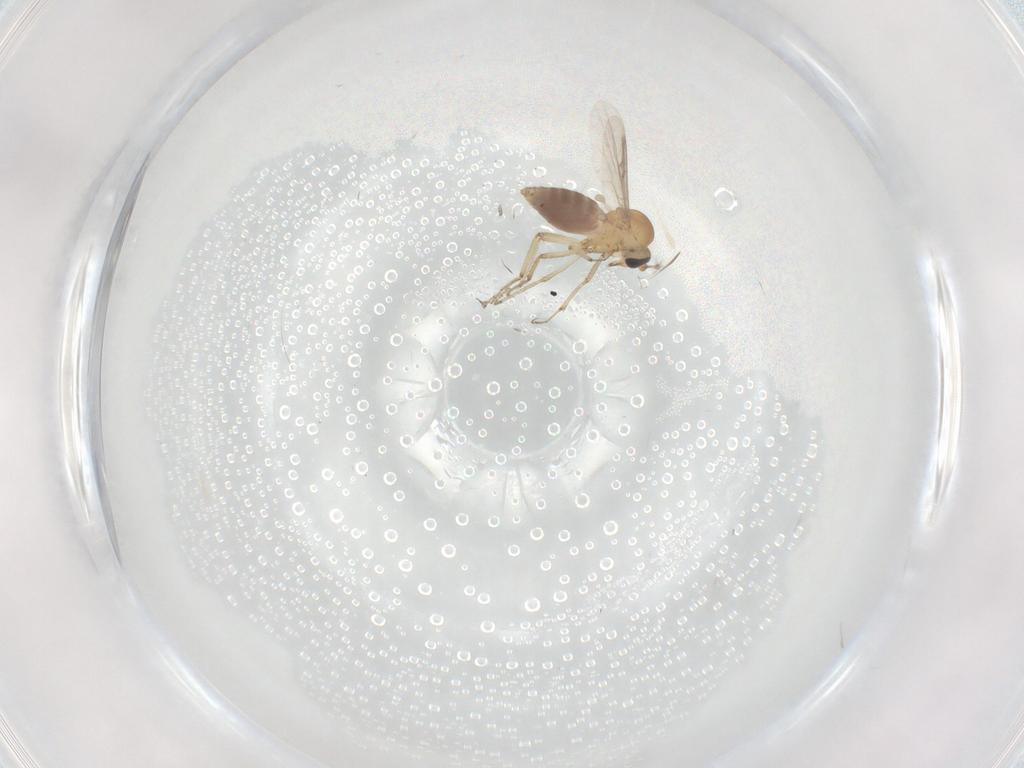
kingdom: Animalia
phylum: Arthropoda
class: Insecta
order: Diptera
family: Ceratopogonidae
